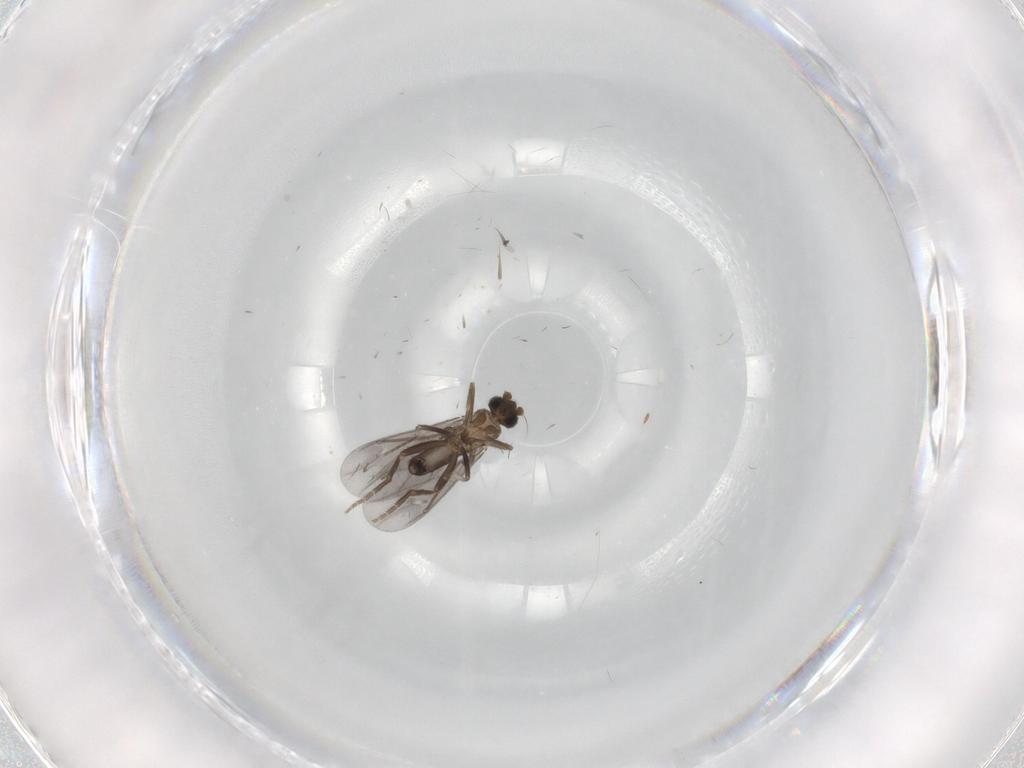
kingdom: Animalia
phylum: Arthropoda
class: Insecta
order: Diptera
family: Phoridae
